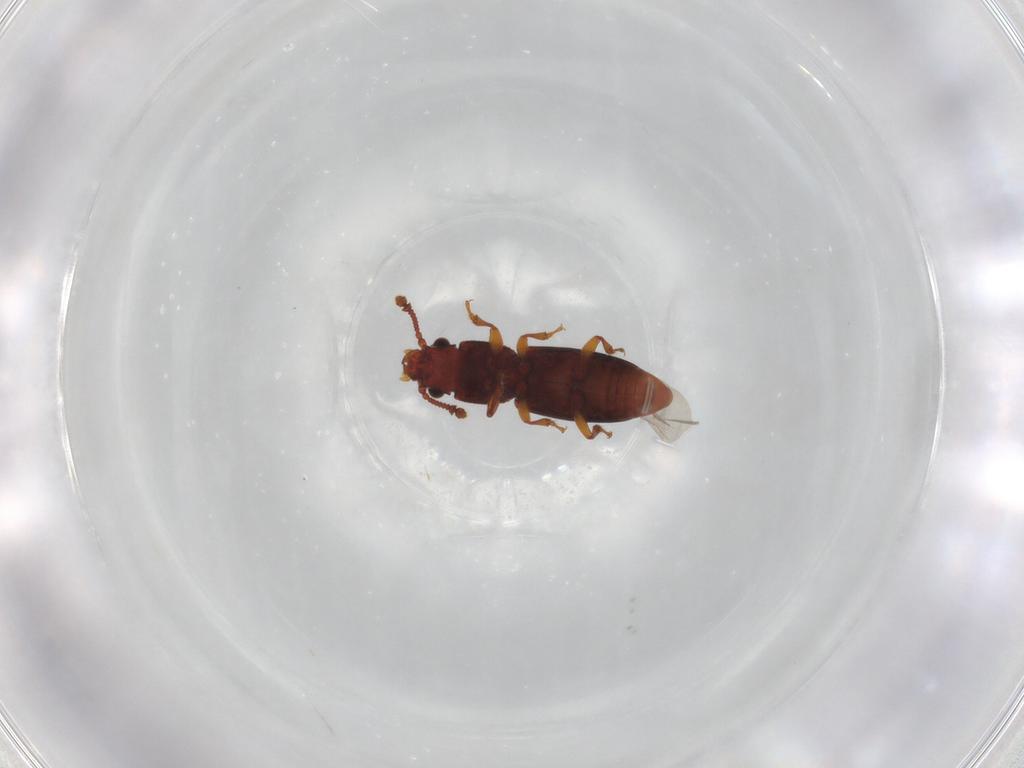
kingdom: Animalia
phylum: Arthropoda
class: Insecta
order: Coleoptera
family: Monotomidae
